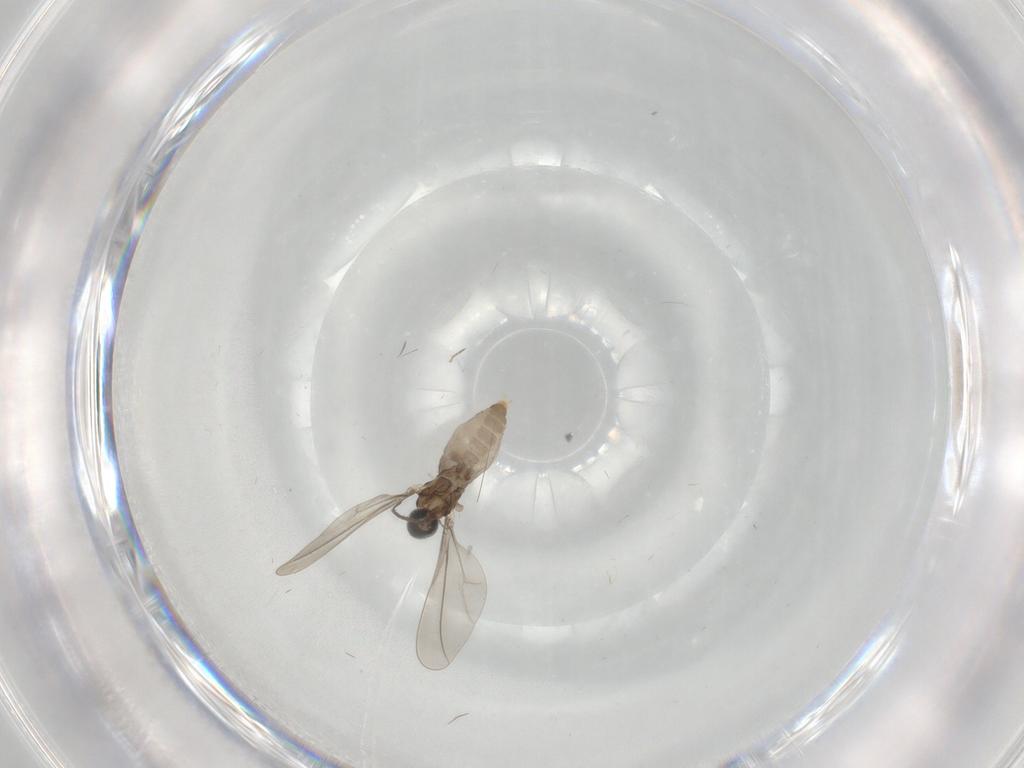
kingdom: Animalia
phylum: Arthropoda
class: Insecta
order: Diptera
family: Cecidomyiidae
